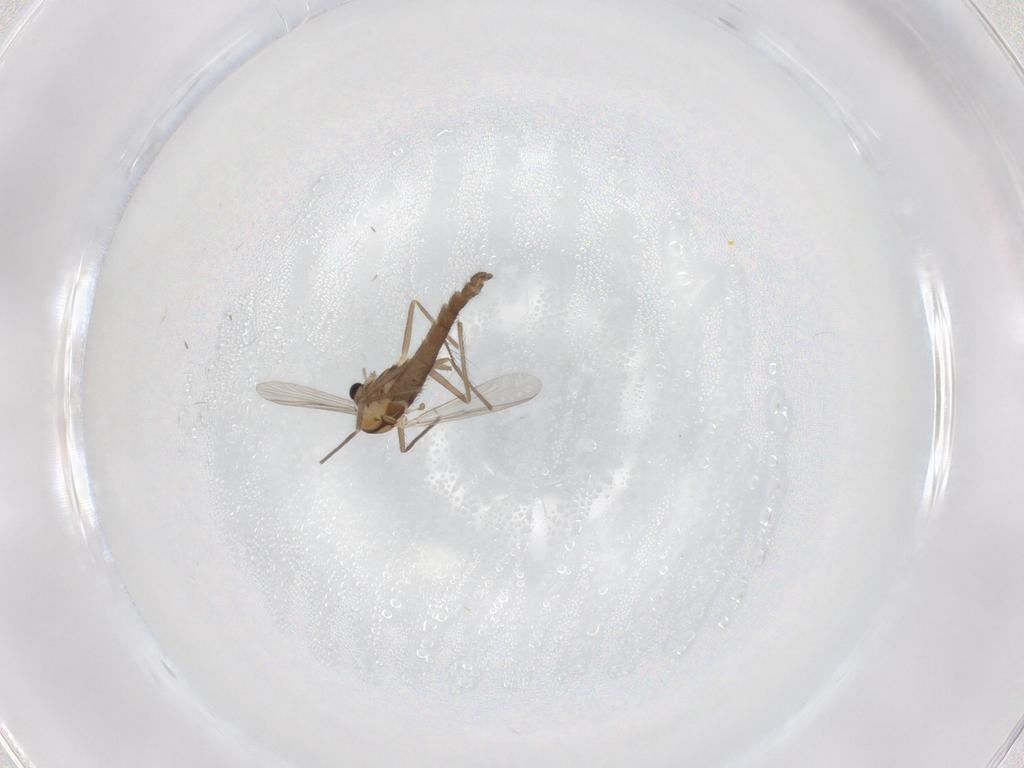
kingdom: Animalia
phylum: Arthropoda
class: Insecta
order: Diptera
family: Chironomidae
